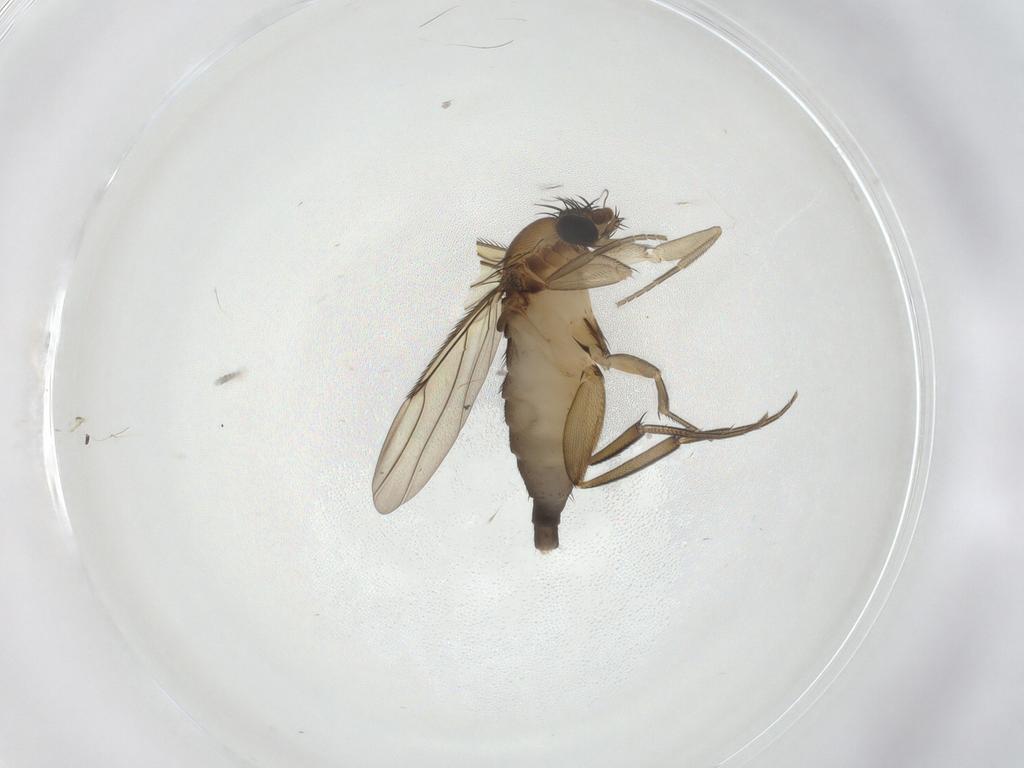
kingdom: Animalia
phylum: Arthropoda
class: Insecta
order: Diptera
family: Phoridae
